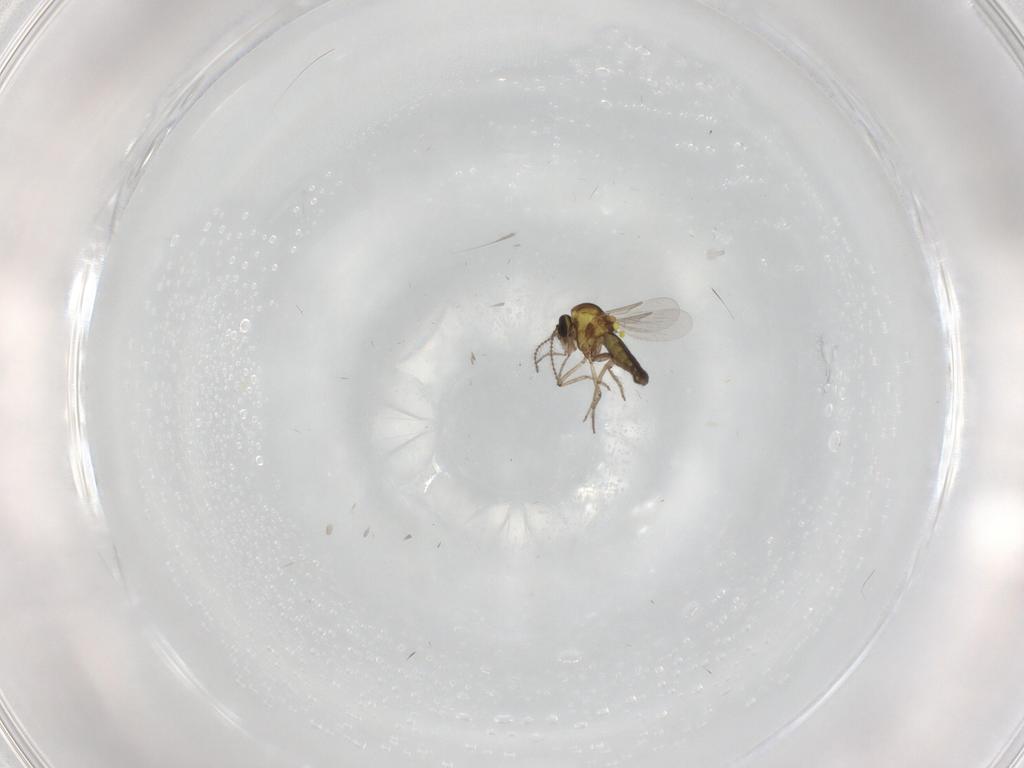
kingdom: Animalia
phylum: Arthropoda
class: Insecta
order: Diptera
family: Ceratopogonidae
